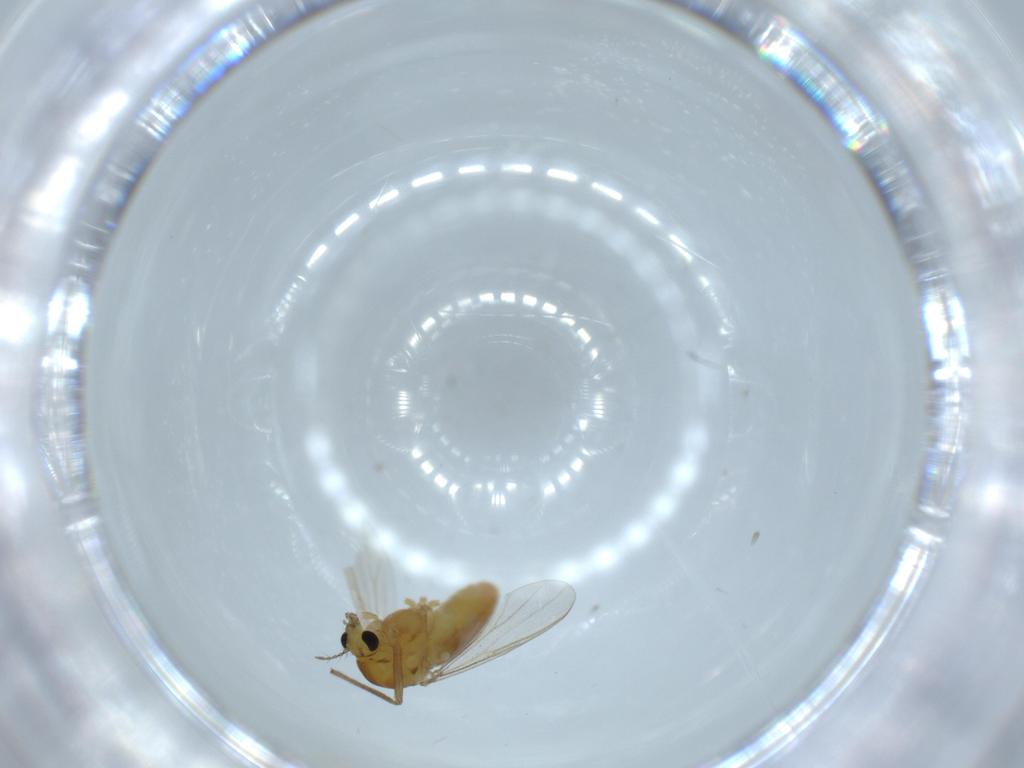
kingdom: Animalia
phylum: Arthropoda
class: Insecta
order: Diptera
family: Chironomidae
